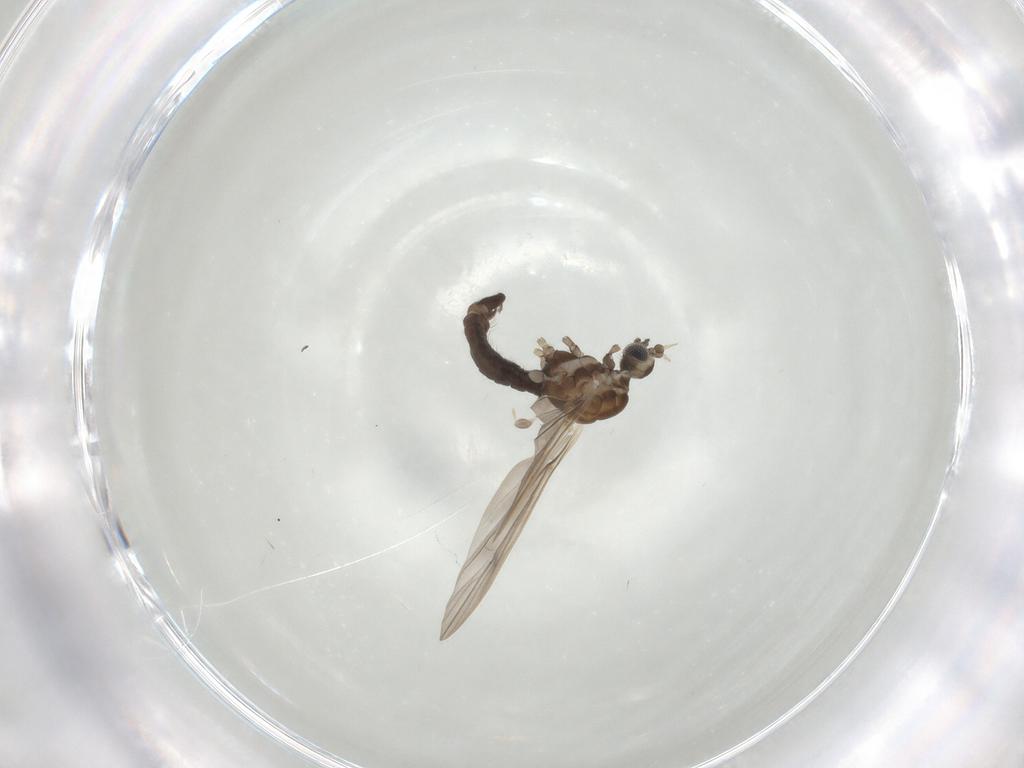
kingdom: Animalia
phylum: Arthropoda
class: Insecta
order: Diptera
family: Limoniidae
